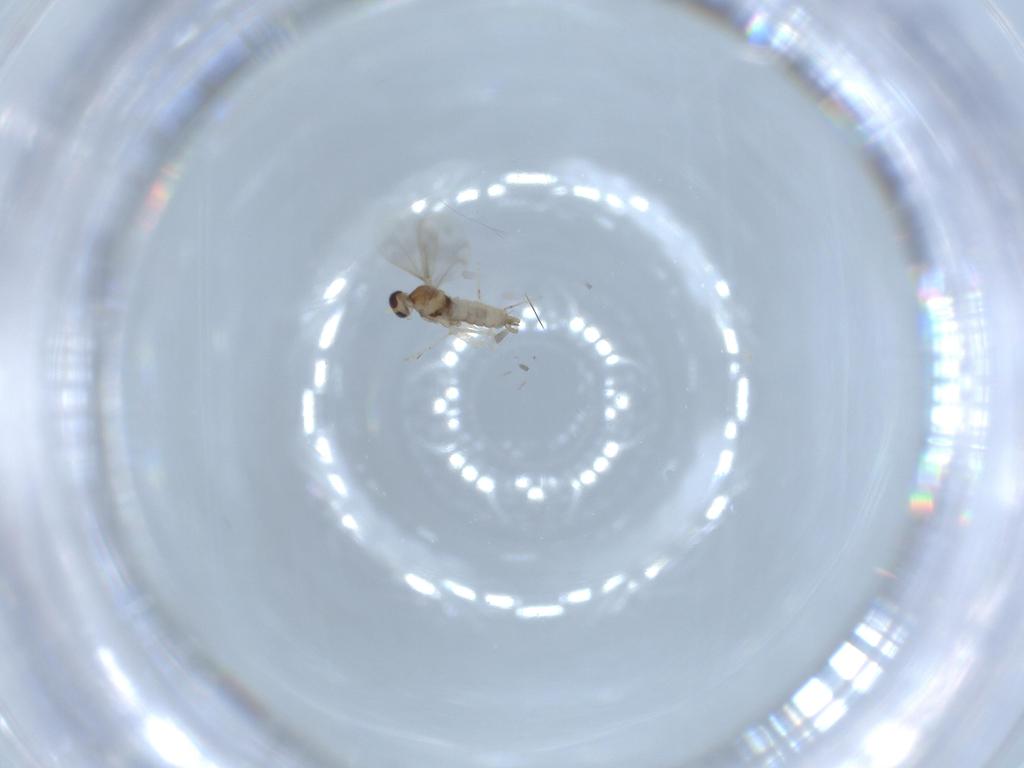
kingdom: Animalia
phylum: Arthropoda
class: Insecta
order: Diptera
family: Cecidomyiidae
